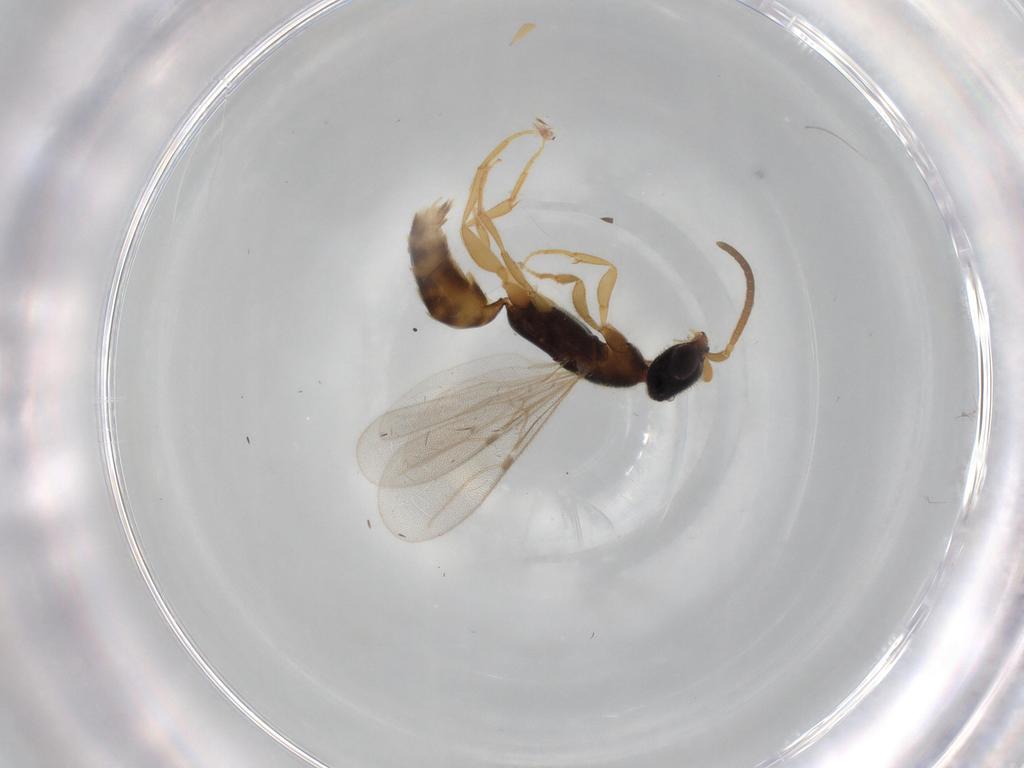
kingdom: Animalia
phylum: Arthropoda
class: Insecta
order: Hymenoptera
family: Bethylidae
